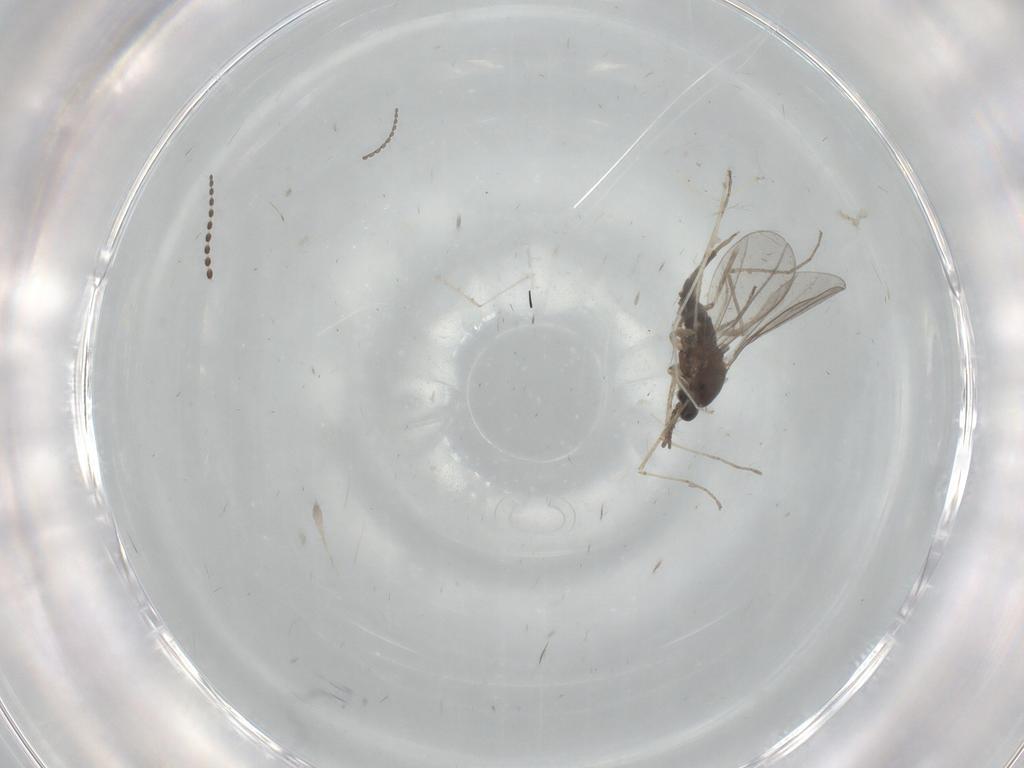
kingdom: Animalia
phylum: Arthropoda
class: Insecta
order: Diptera
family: Cecidomyiidae
